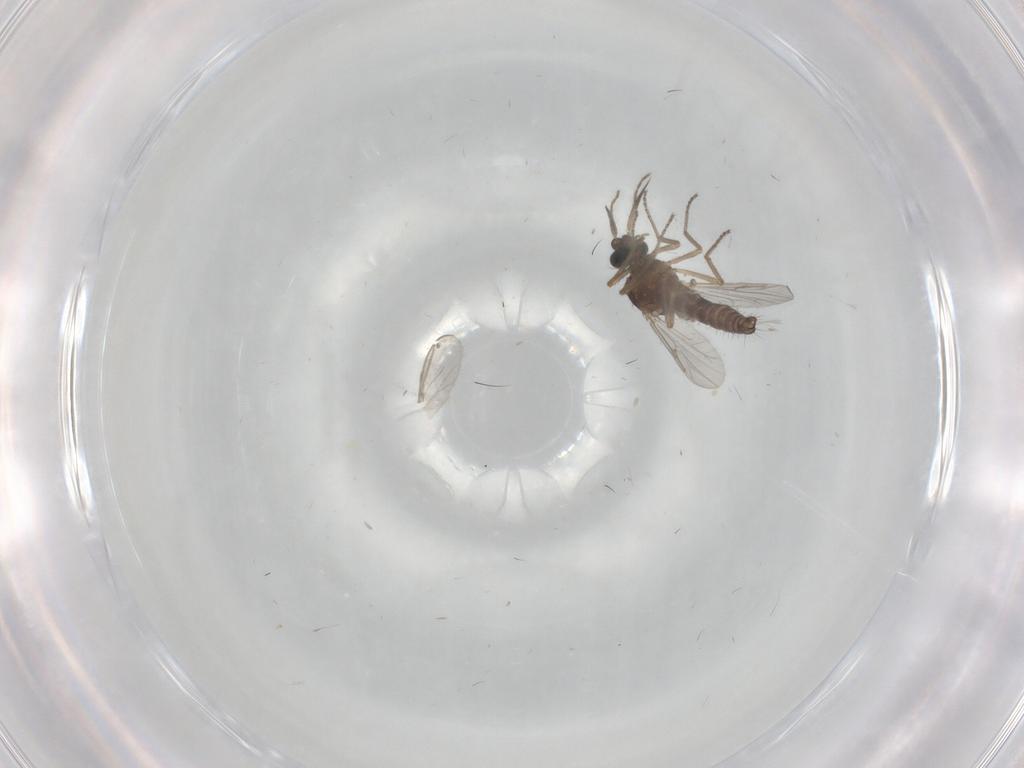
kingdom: Animalia
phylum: Arthropoda
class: Insecta
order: Diptera
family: Ceratopogonidae
